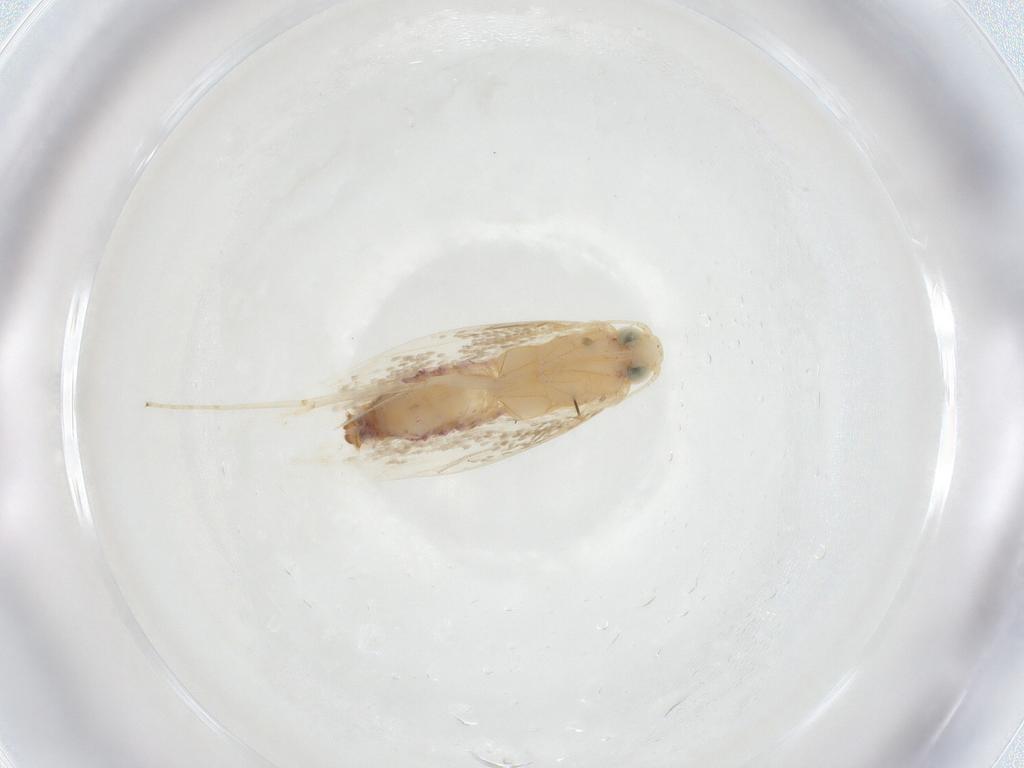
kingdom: Animalia
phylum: Arthropoda
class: Insecta
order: Lepidoptera
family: Tischeriidae
